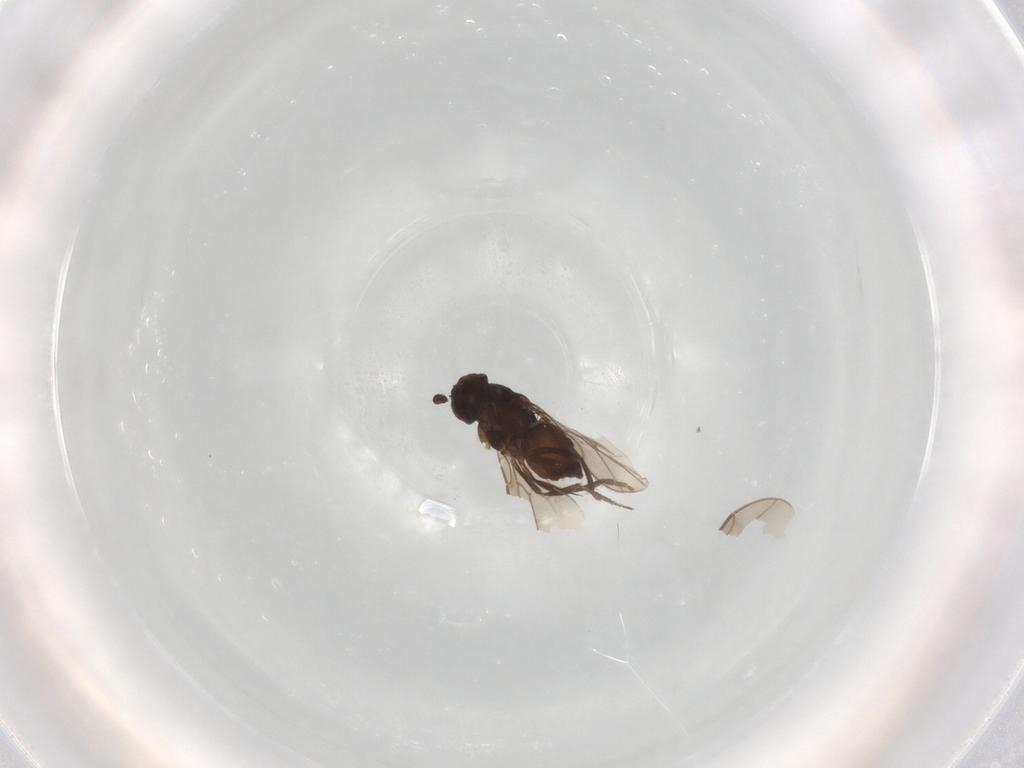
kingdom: Animalia
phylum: Arthropoda
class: Insecta
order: Diptera
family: Sphaeroceridae
